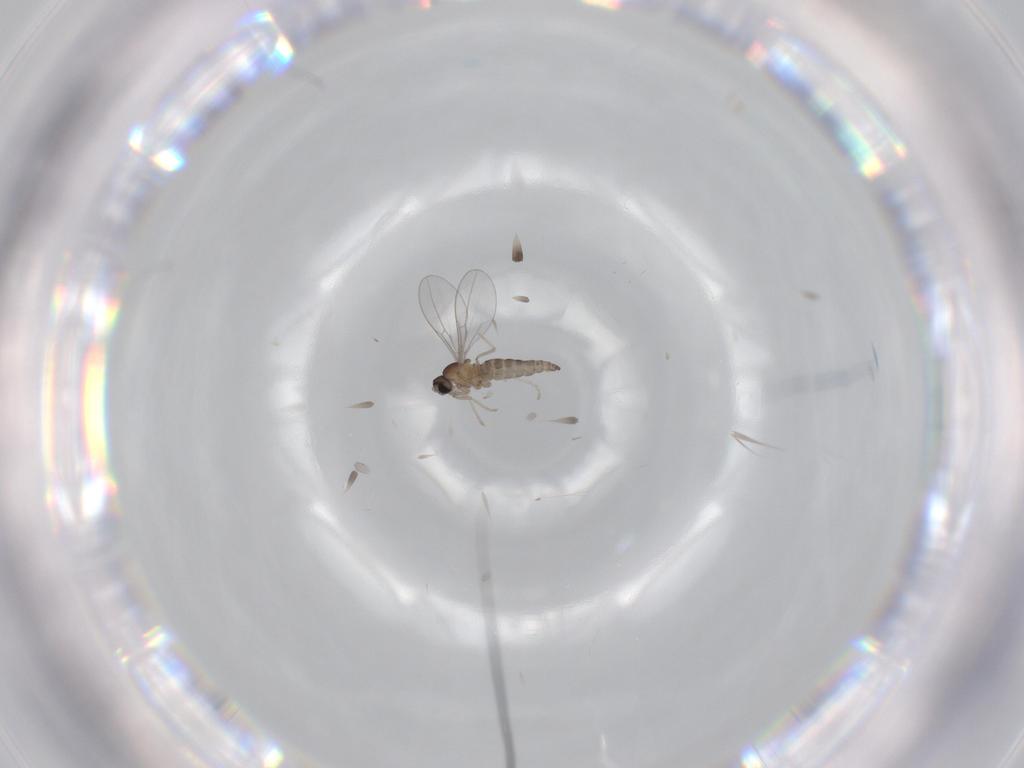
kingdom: Animalia
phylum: Arthropoda
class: Insecta
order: Diptera
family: Cecidomyiidae
